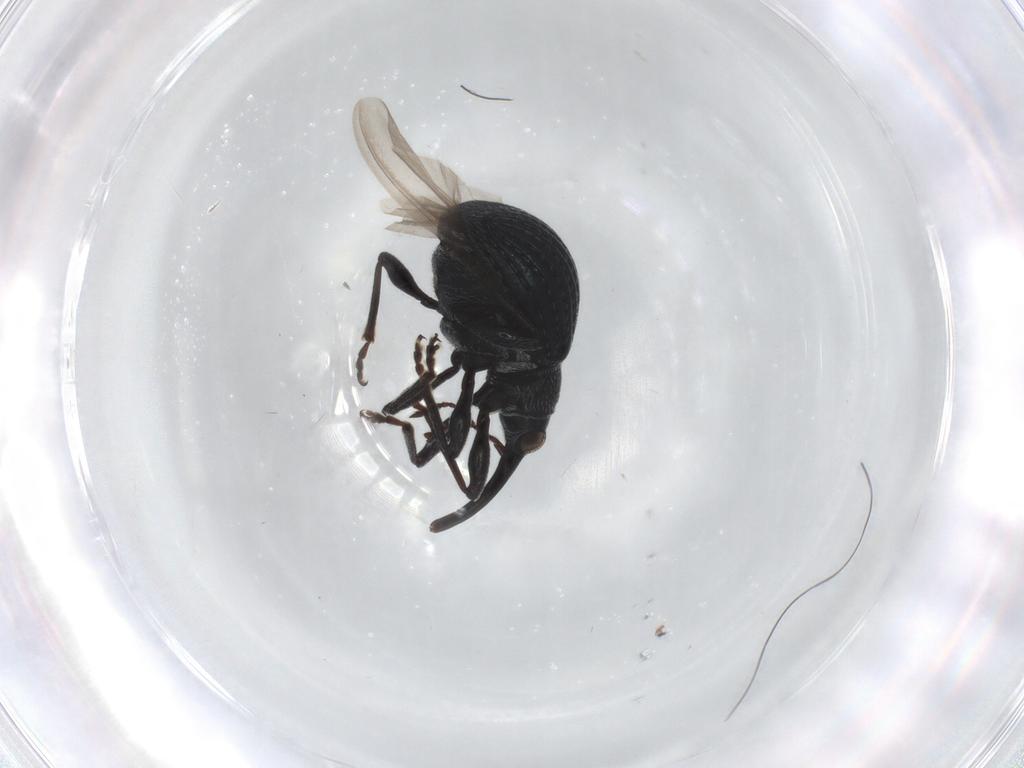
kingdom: Animalia
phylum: Arthropoda
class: Insecta
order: Coleoptera
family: Brentidae
